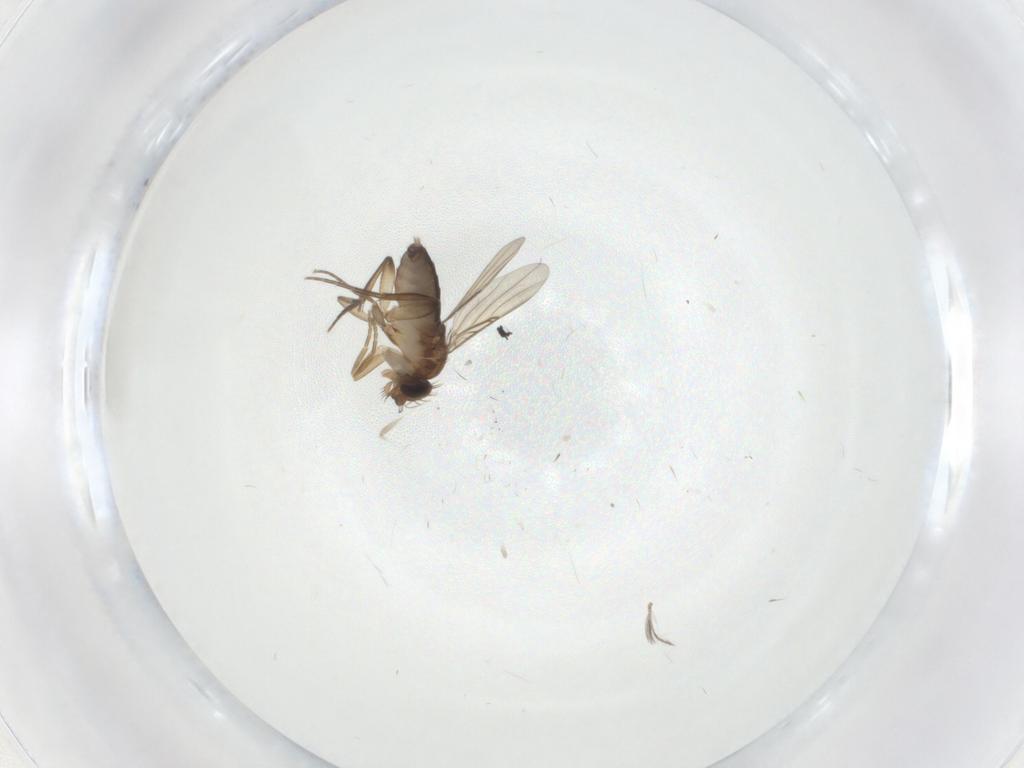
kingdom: Animalia
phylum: Arthropoda
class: Insecta
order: Diptera
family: Phoridae
